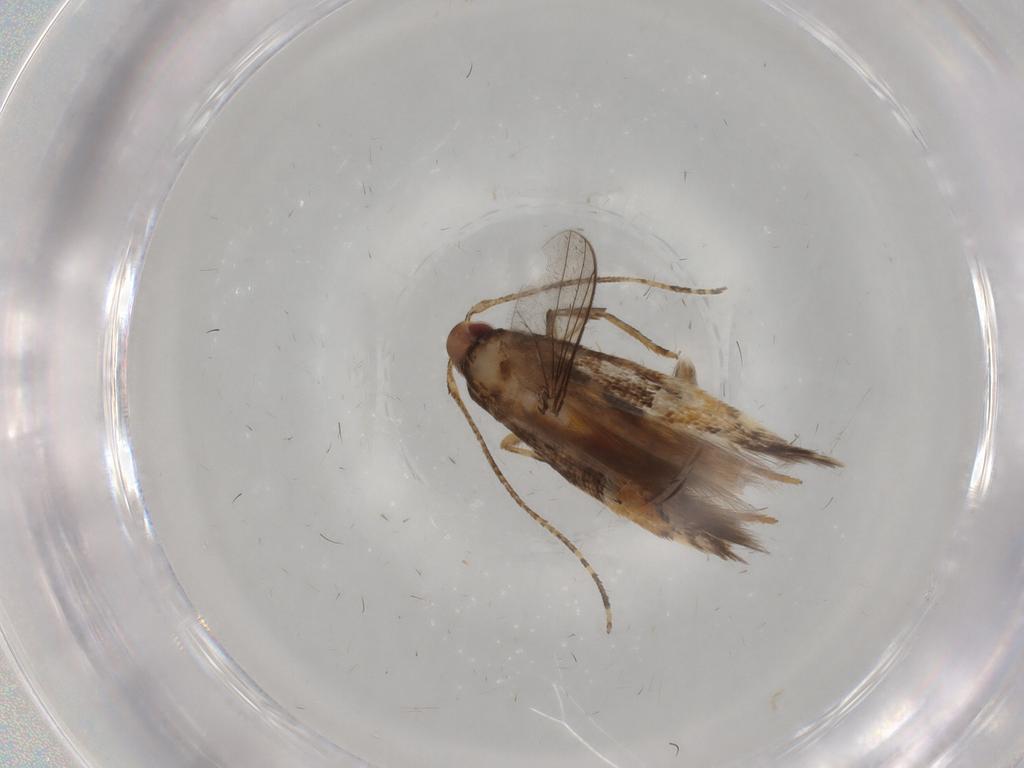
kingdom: Animalia
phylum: Arthropoda
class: Insecta
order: Lepidoptera
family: Cosmopterigidae
